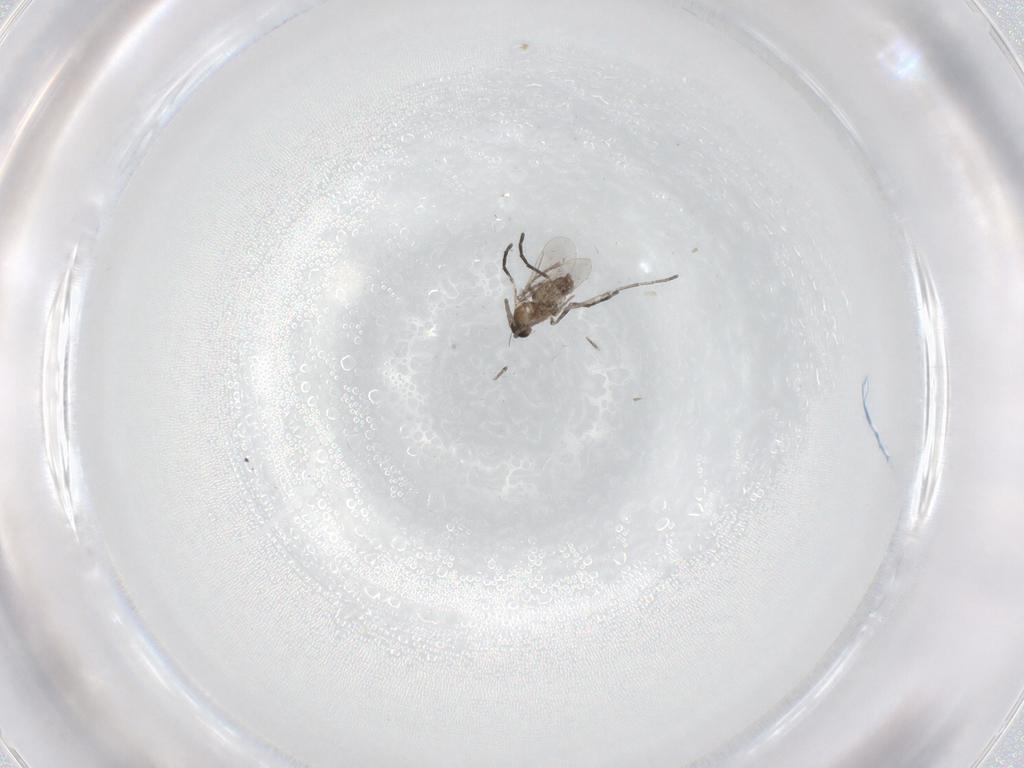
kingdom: Animalia
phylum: Arthropoda
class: Insecta
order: Diptera
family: Cecidomyiidae
